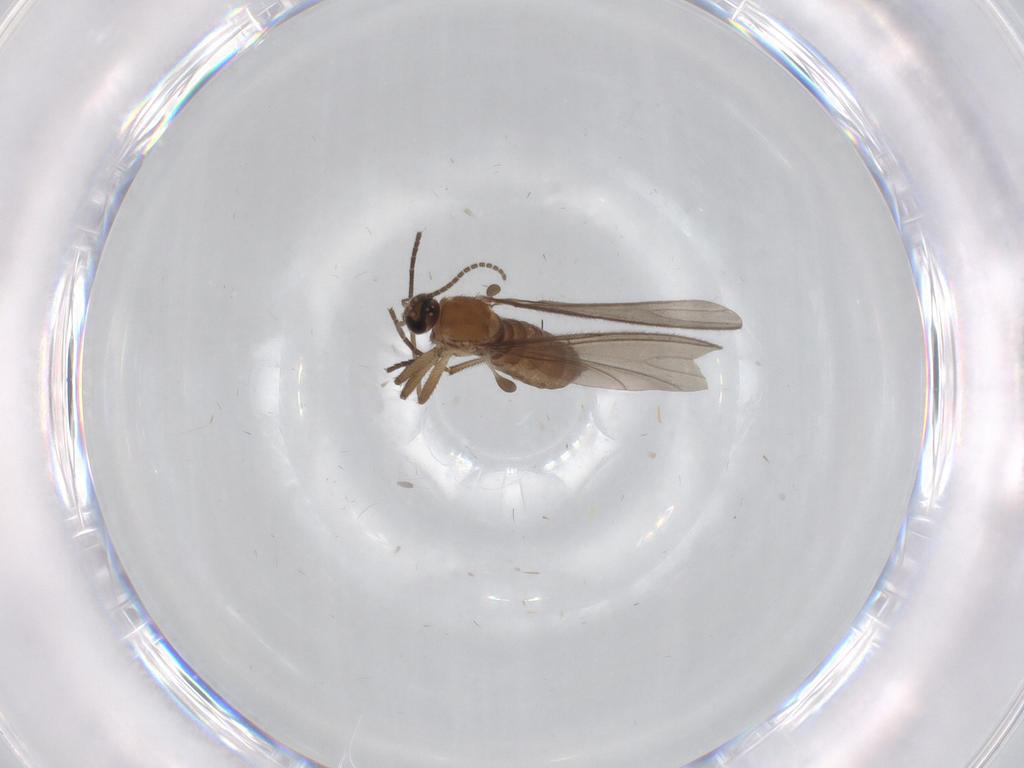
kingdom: Animalia
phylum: Arthropoda
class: Insecta
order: Diptera
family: Sciaridae
